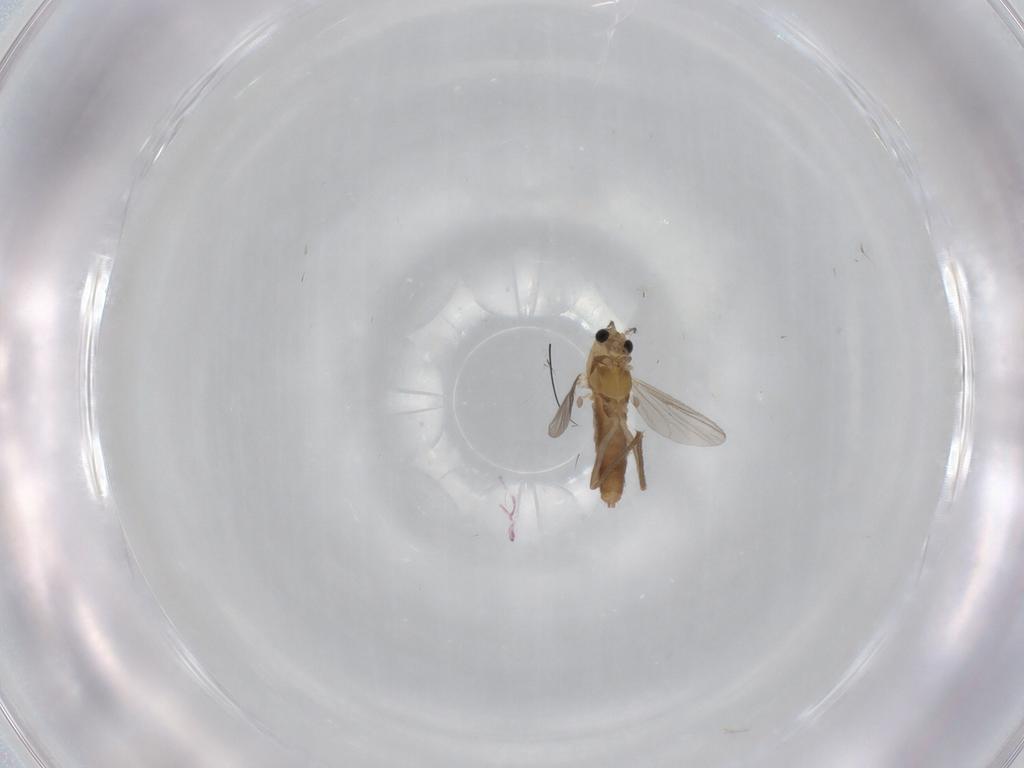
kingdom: Animalia
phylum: Arthropoda
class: Insecta
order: Diptera
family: Chironomidae
